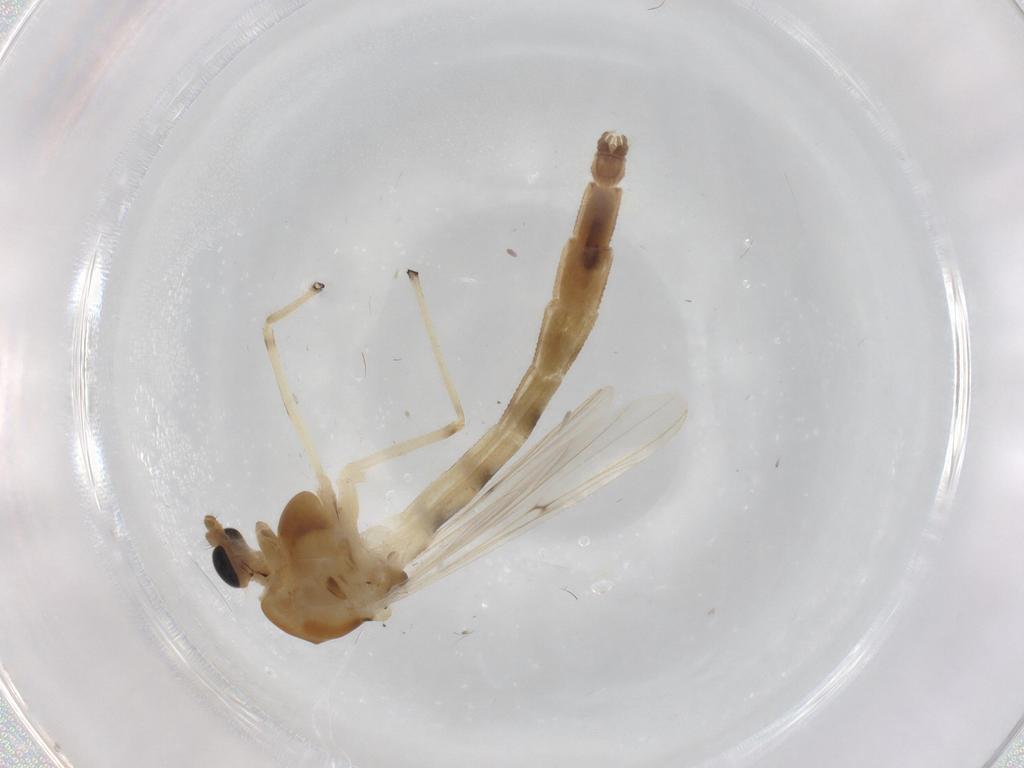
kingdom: Animalia
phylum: Arthropoda
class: Insecta
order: Diptera
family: Chironomidae
